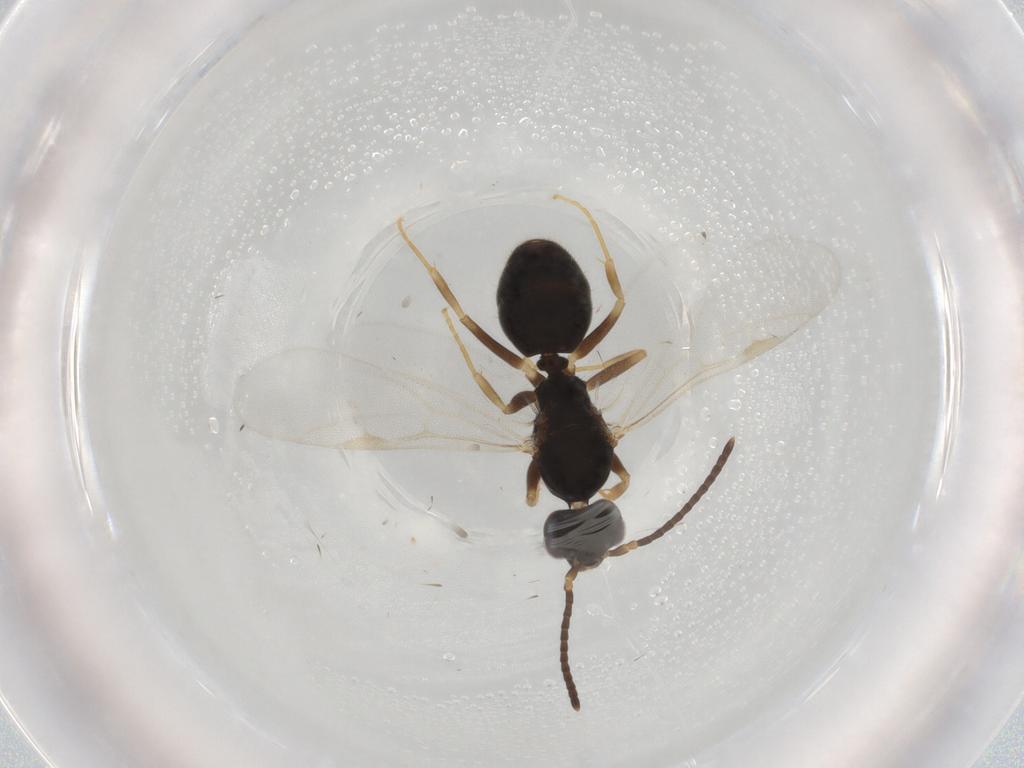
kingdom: Animalia
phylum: Arthropoda
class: Insecta
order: Hymenoptera
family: Formicidae
